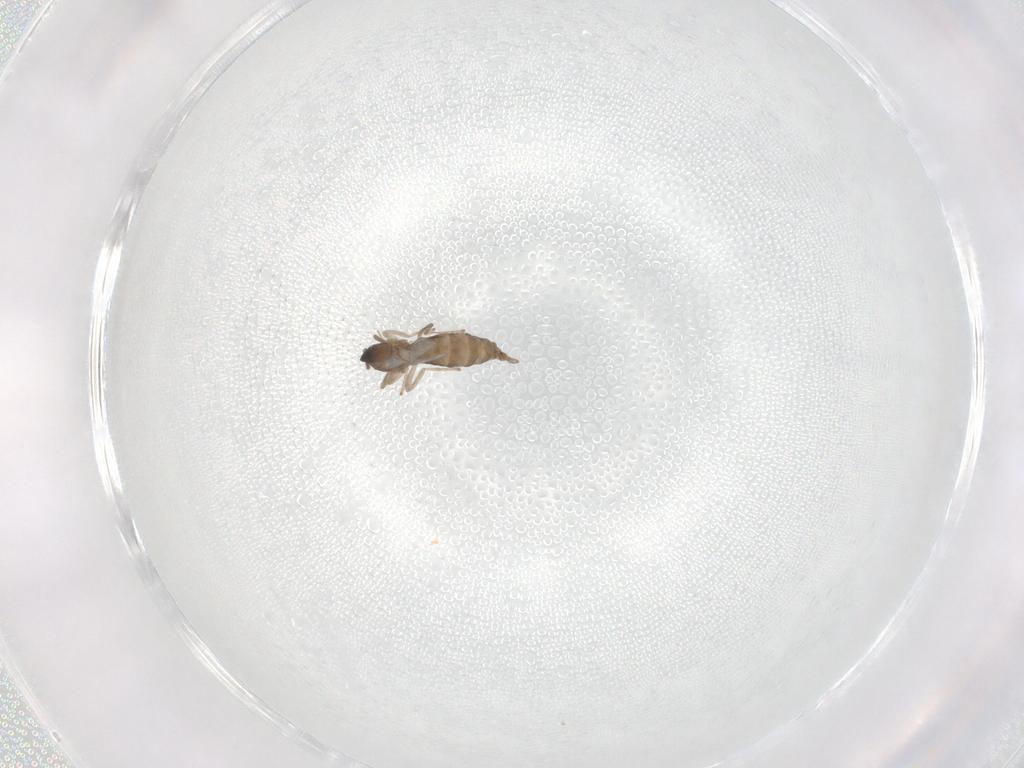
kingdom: Animalia
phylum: Arthropoda
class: Insecta
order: Diptera
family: Cecidomyiidae
